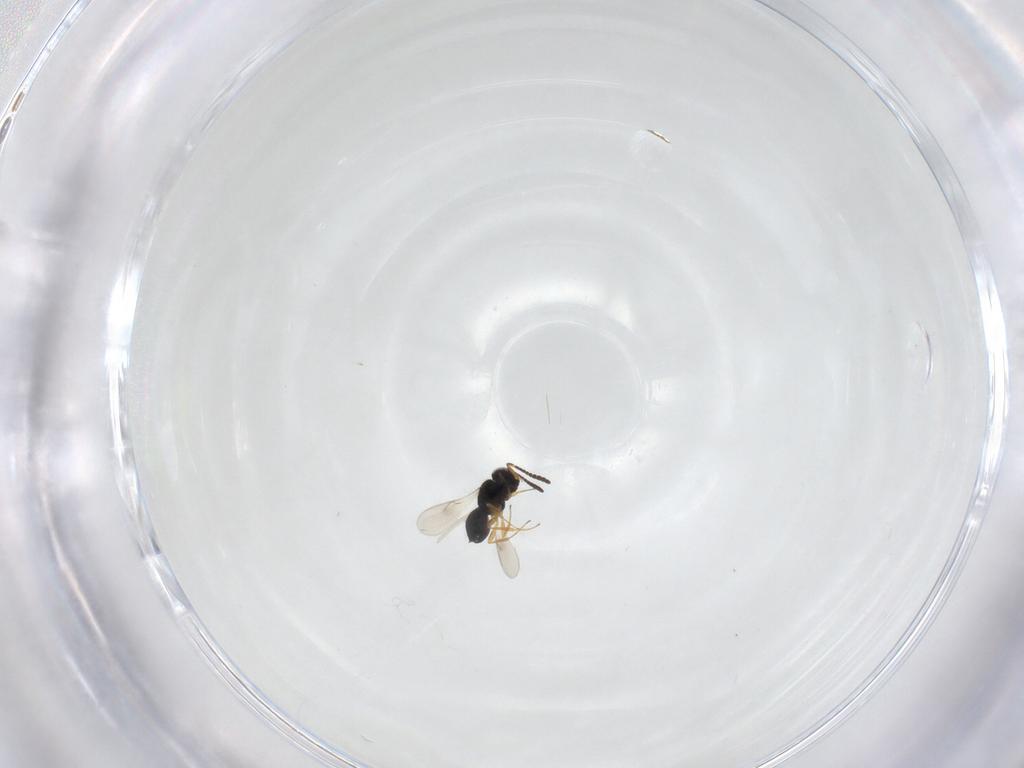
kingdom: Animalia
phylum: Arthropoda
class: Insecta
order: Hymenoptera
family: Scelionidae
